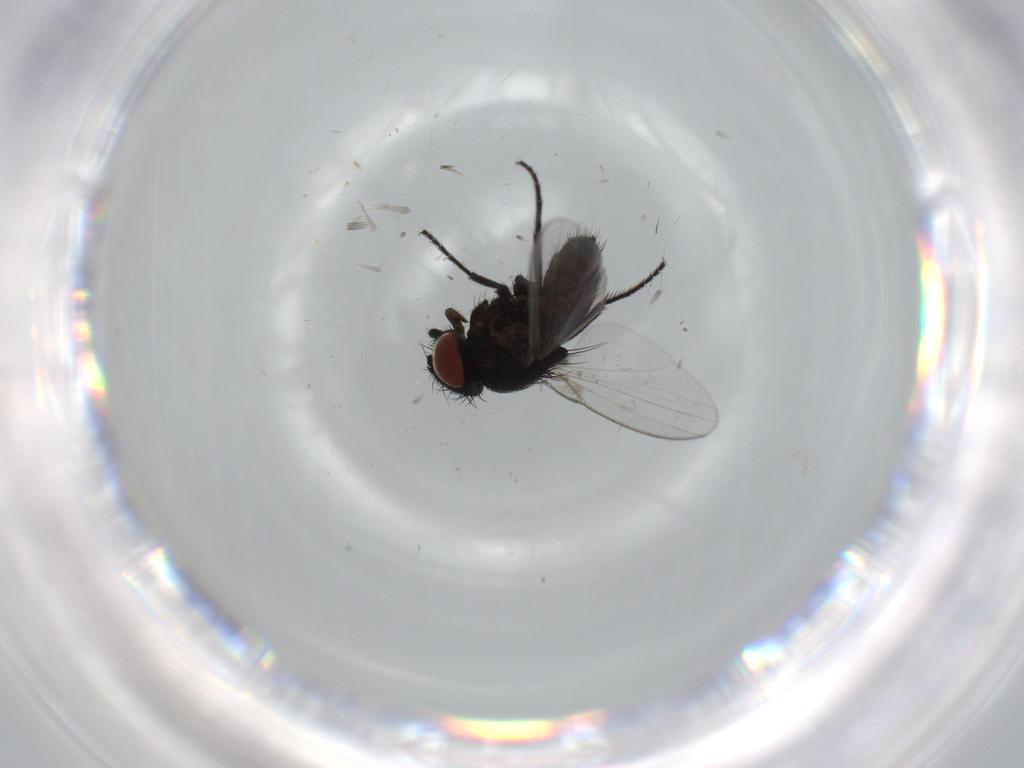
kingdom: Animalia
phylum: Arthropoda
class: Insecta
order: Diptera
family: Milichiidae
